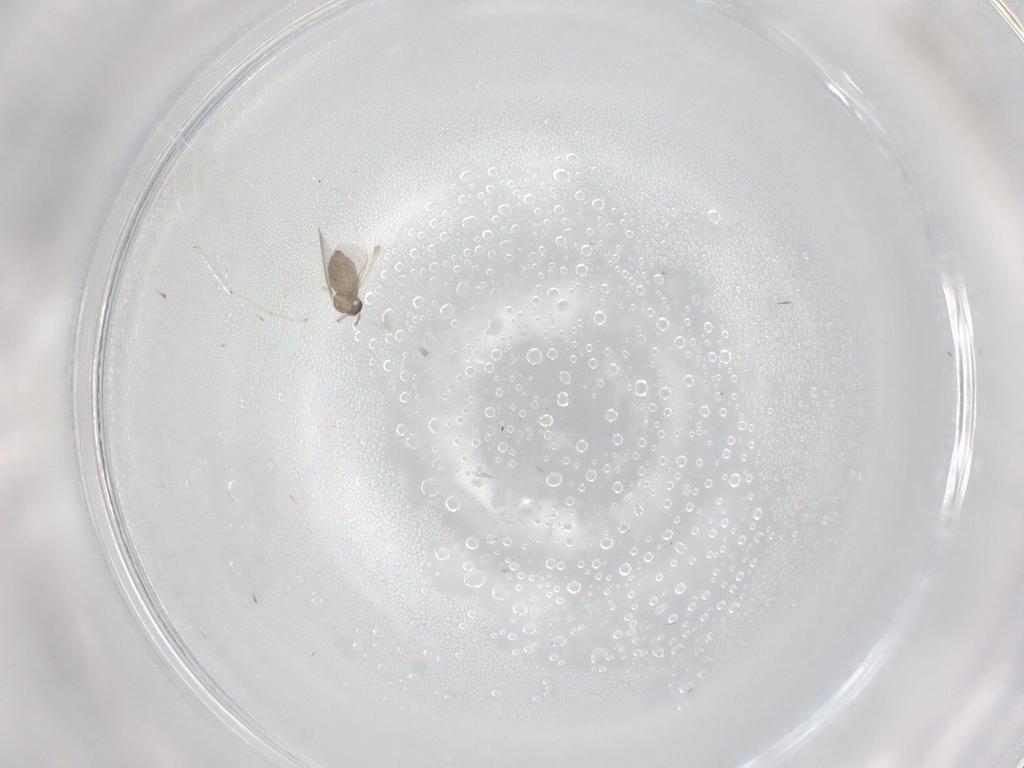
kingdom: Animalia
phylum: Arthropoda
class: Insecta
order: Diptera
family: Cecidomyiidae
